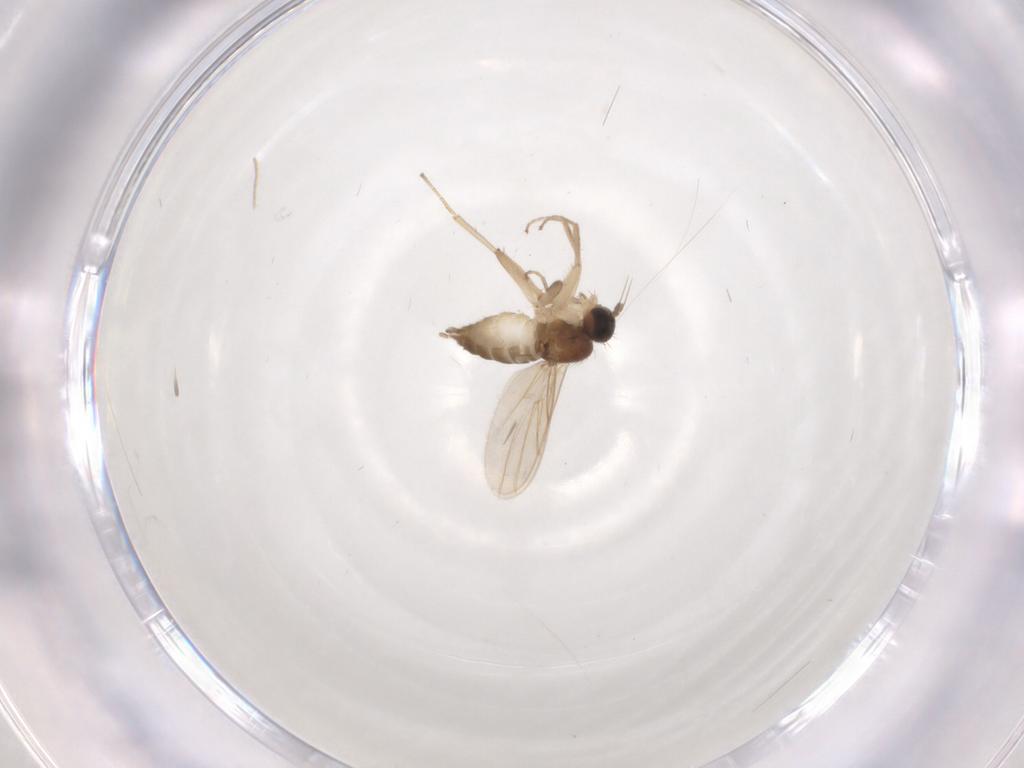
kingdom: Animalia
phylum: Arthropoda
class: Insecta
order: Diptera
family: Hybotidae
